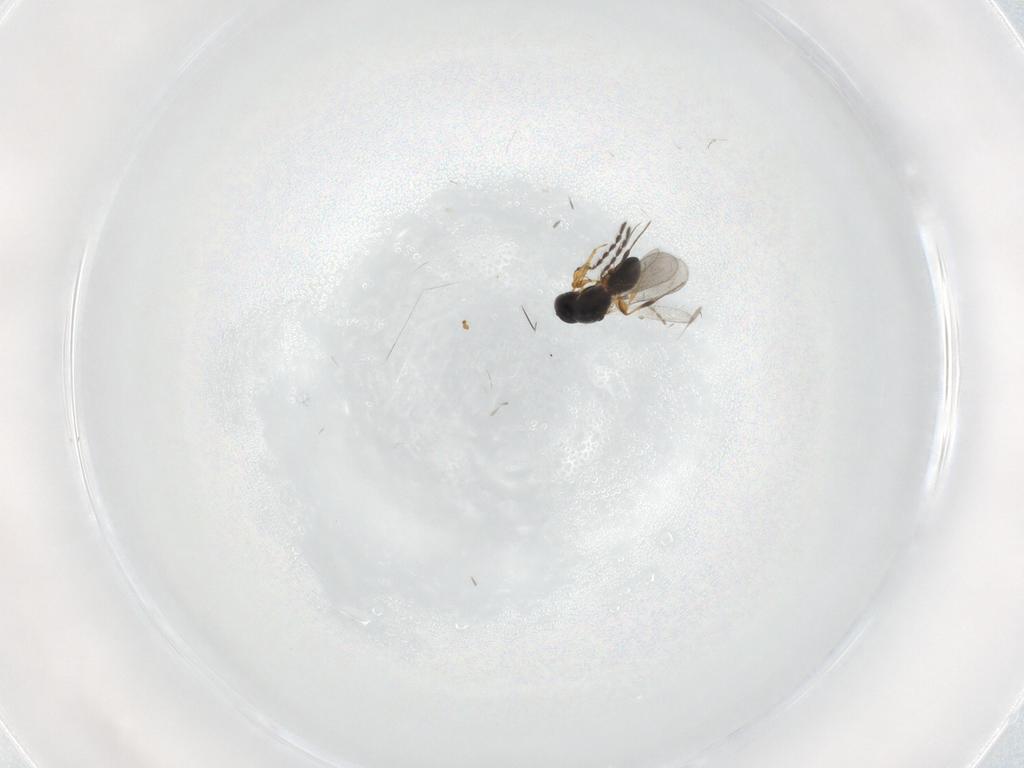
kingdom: Animalia
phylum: Arthropoda
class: Insecta
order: Hymenoptera
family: Platygastridae
